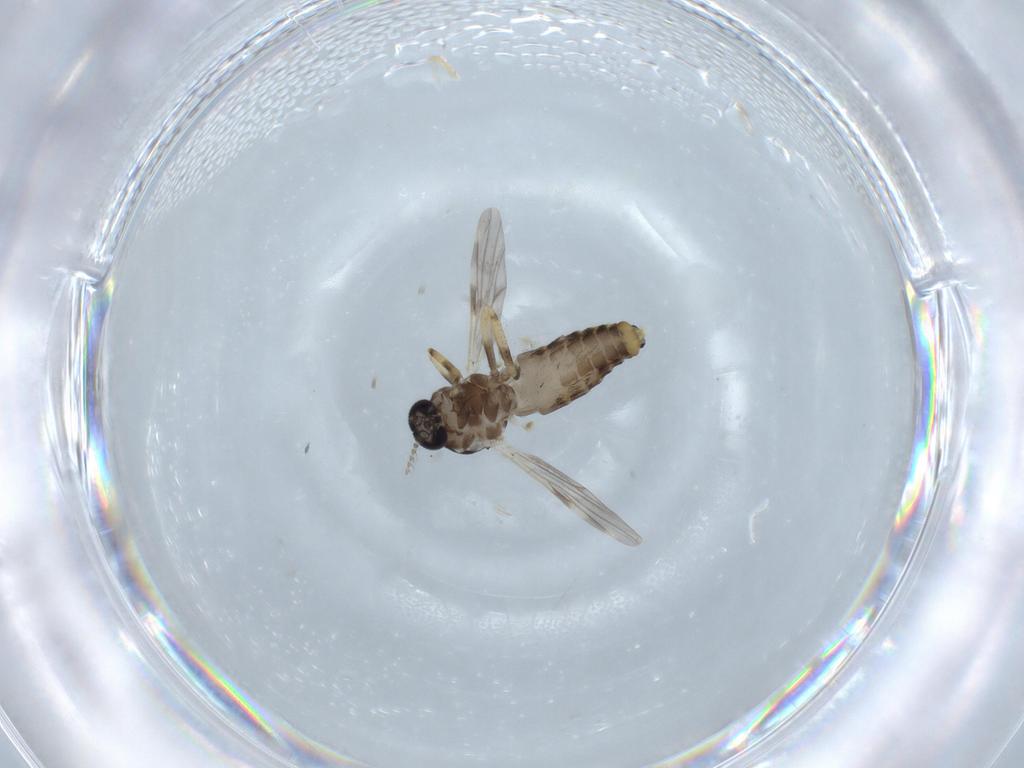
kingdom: Animalia
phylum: Arthropoda
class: Insecta
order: Diptera
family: Ceratopogonidae
